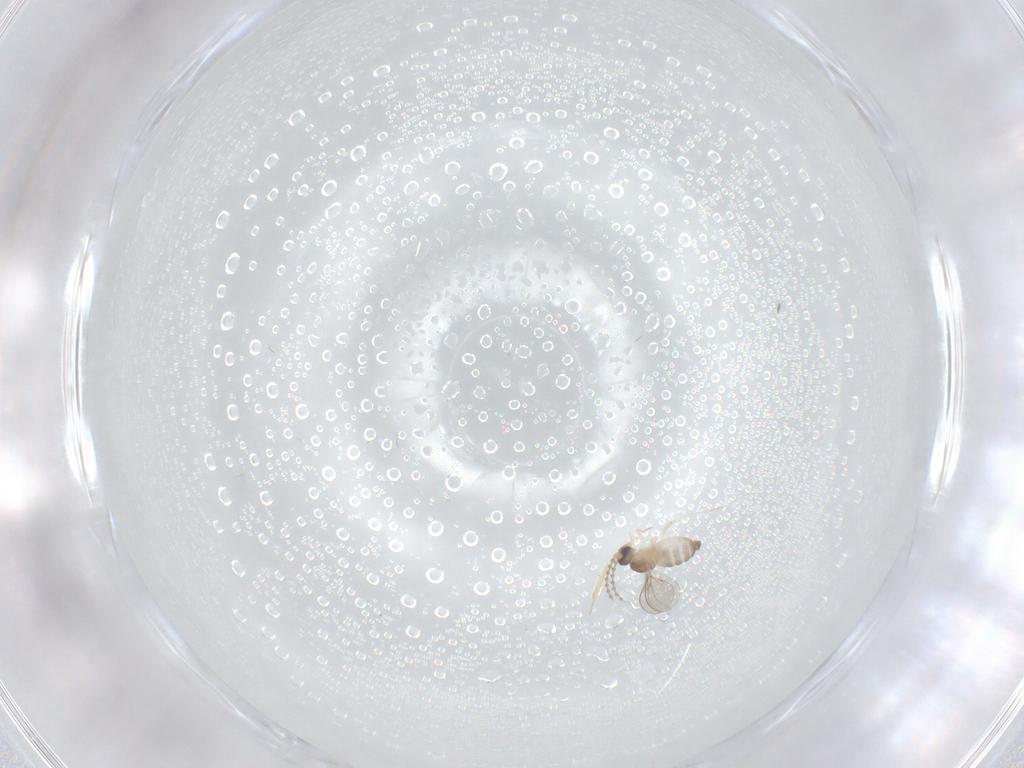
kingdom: Animalia
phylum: Arthropoda
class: Insecta
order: Diptera
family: Cecidomyiidae
